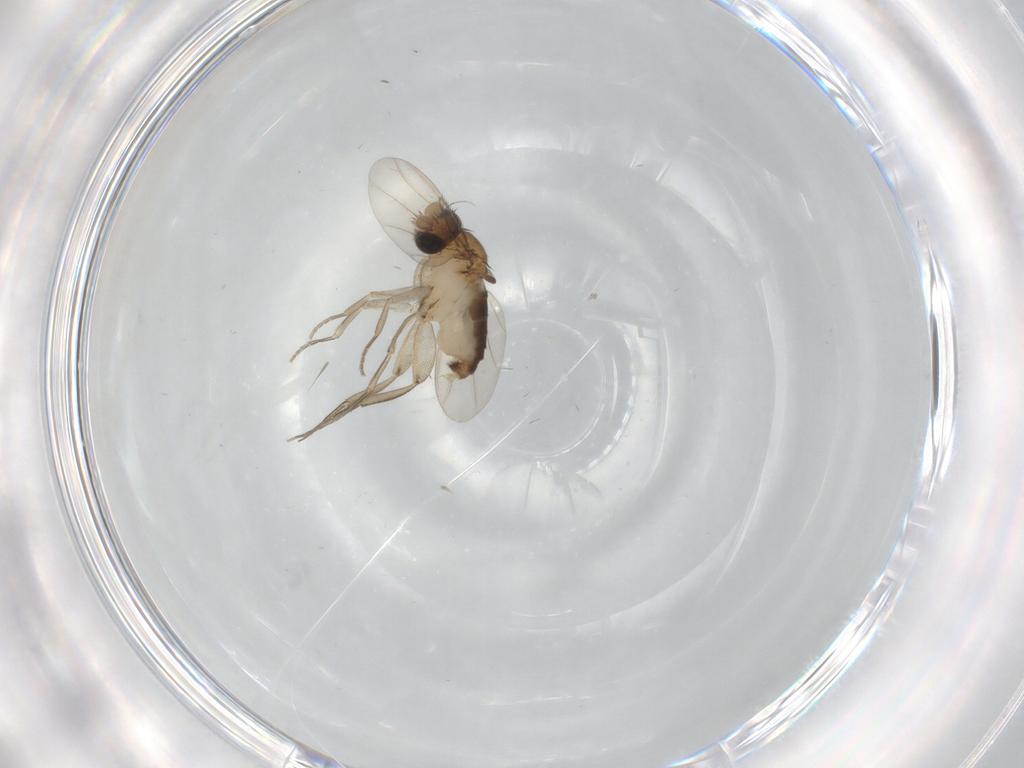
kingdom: Animalia
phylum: Arthropoda
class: Insecta
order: Diptera
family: Phoridae
